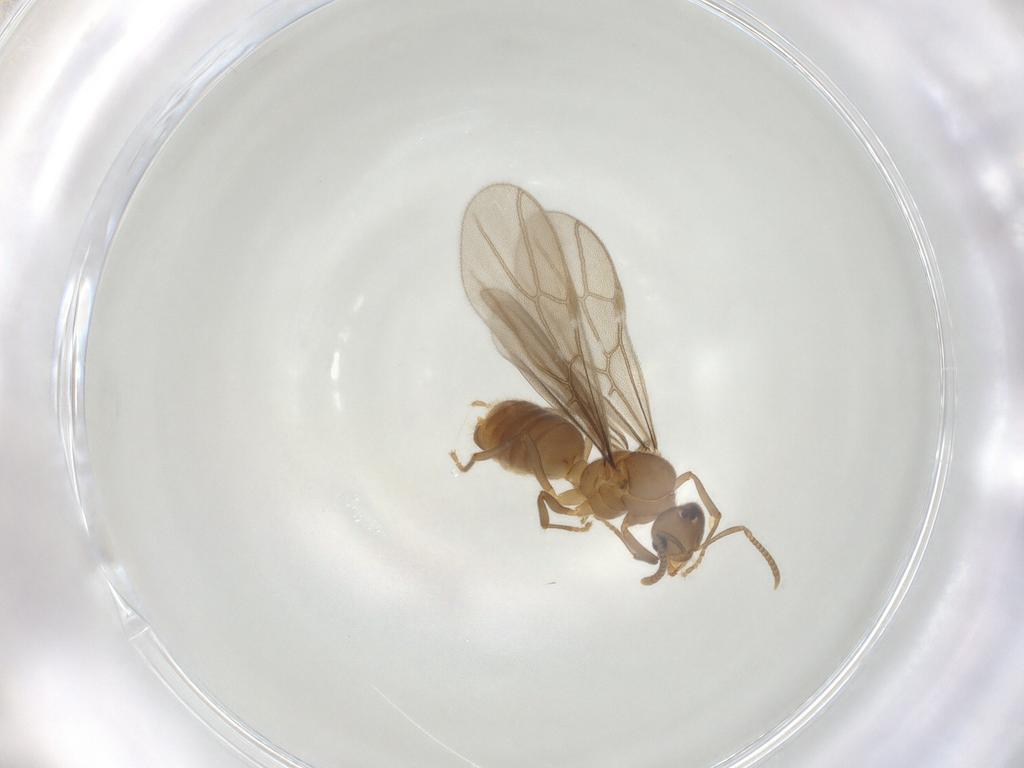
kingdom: Animalia
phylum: Arthropoda
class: Insecta
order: Hymenoptera
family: Formicidae
